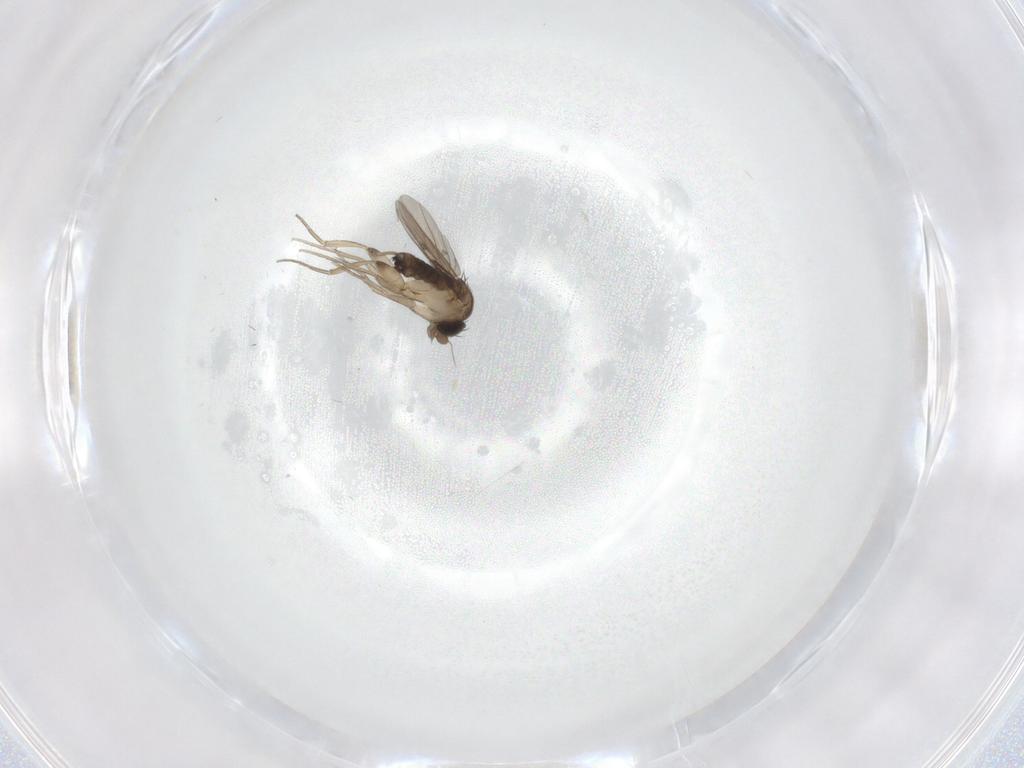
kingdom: Animalia
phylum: Arthropoda
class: Insecta
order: Diptera
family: Phoridae
